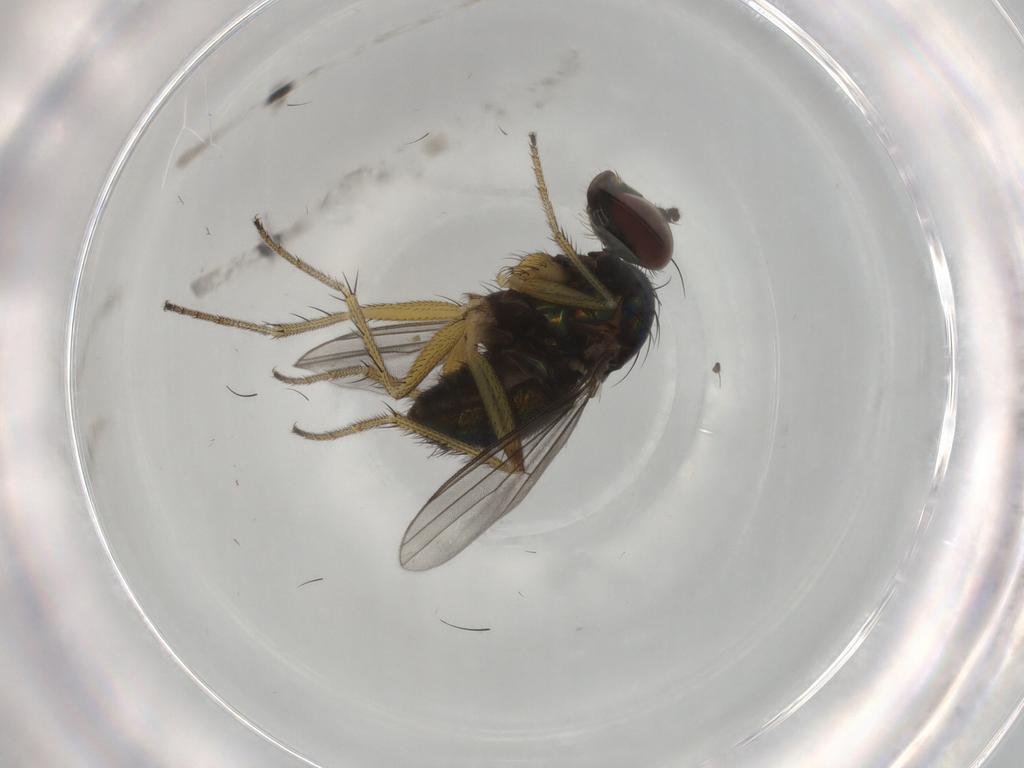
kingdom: Animalia
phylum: Arthropoda
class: Insecta
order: Diptera
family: Dolichopodidae
